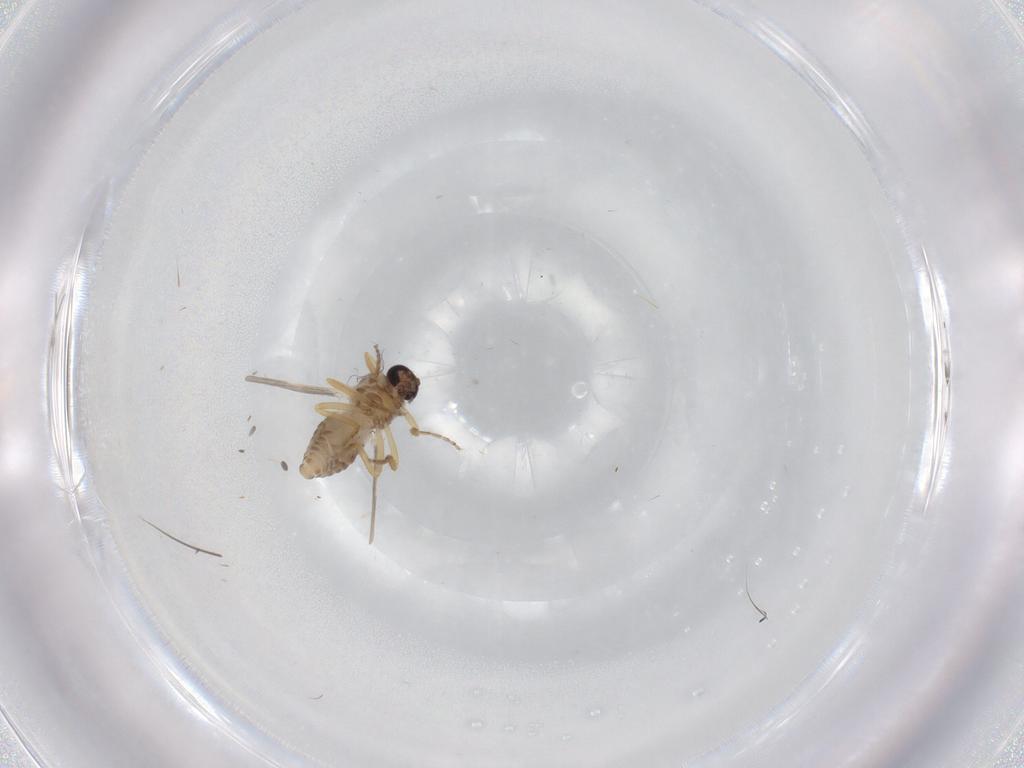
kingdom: Animalia
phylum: Arthropoda
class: Insecta
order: Diptera
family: Ceratopogonidae
